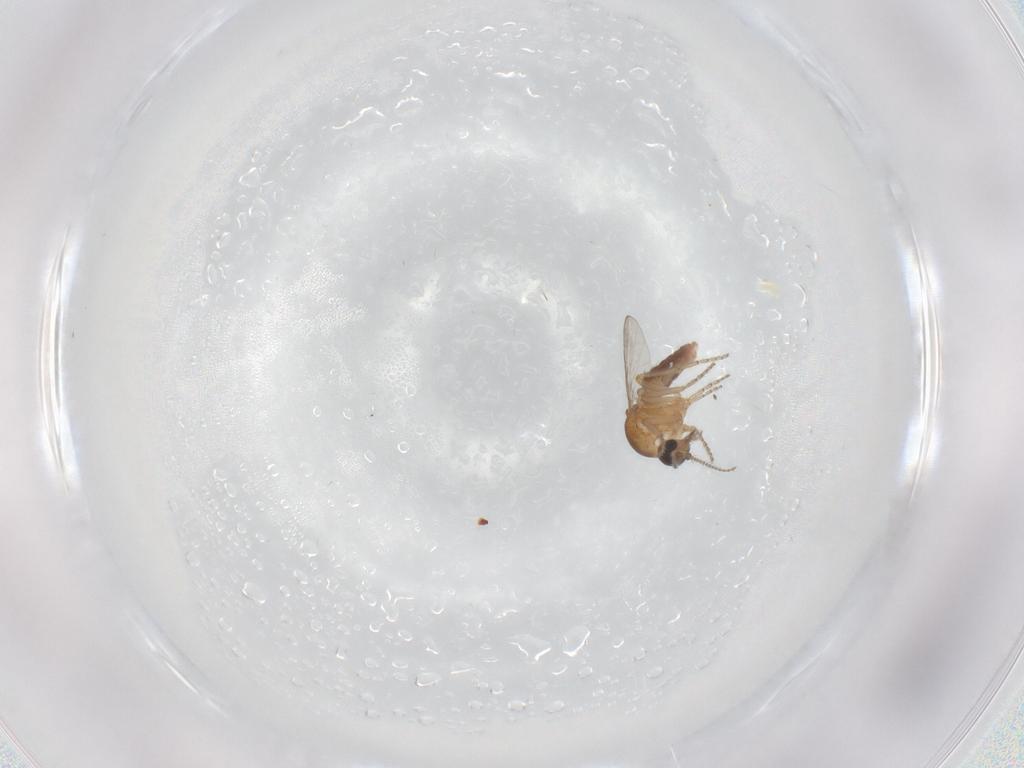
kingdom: Animalia
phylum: Arthropoda
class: Insecta
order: Diptera
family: Ceratopogonidae
